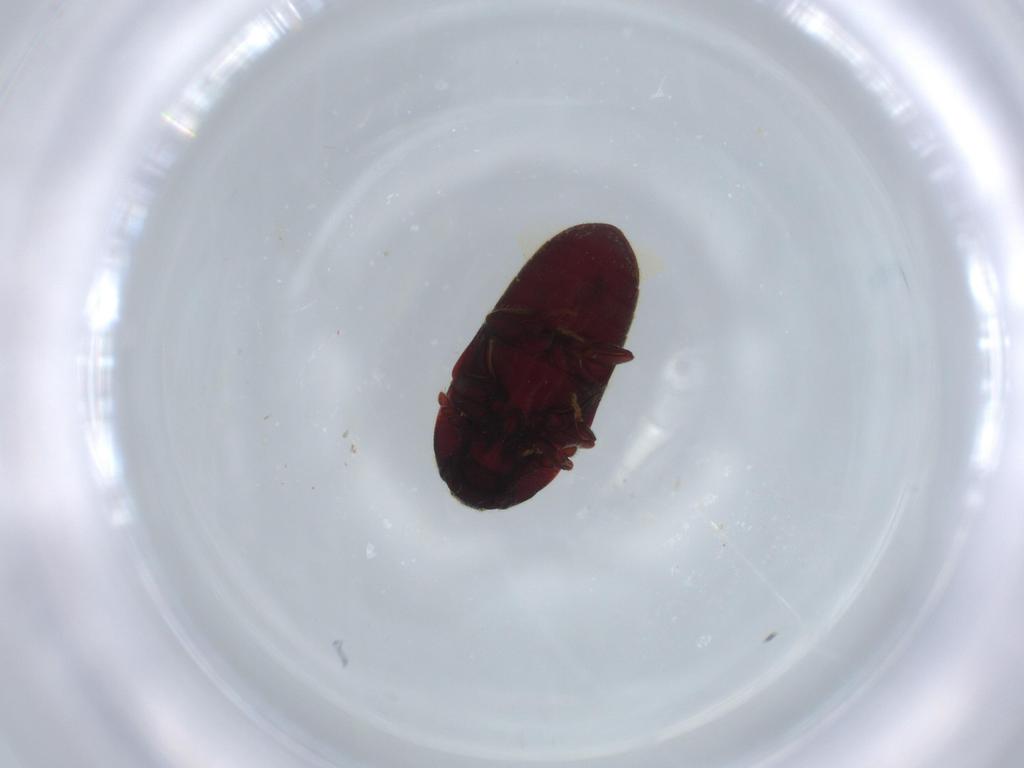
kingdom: Animalia
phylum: Arthropoda
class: Insecta
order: Coleoptera
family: Throscidae
